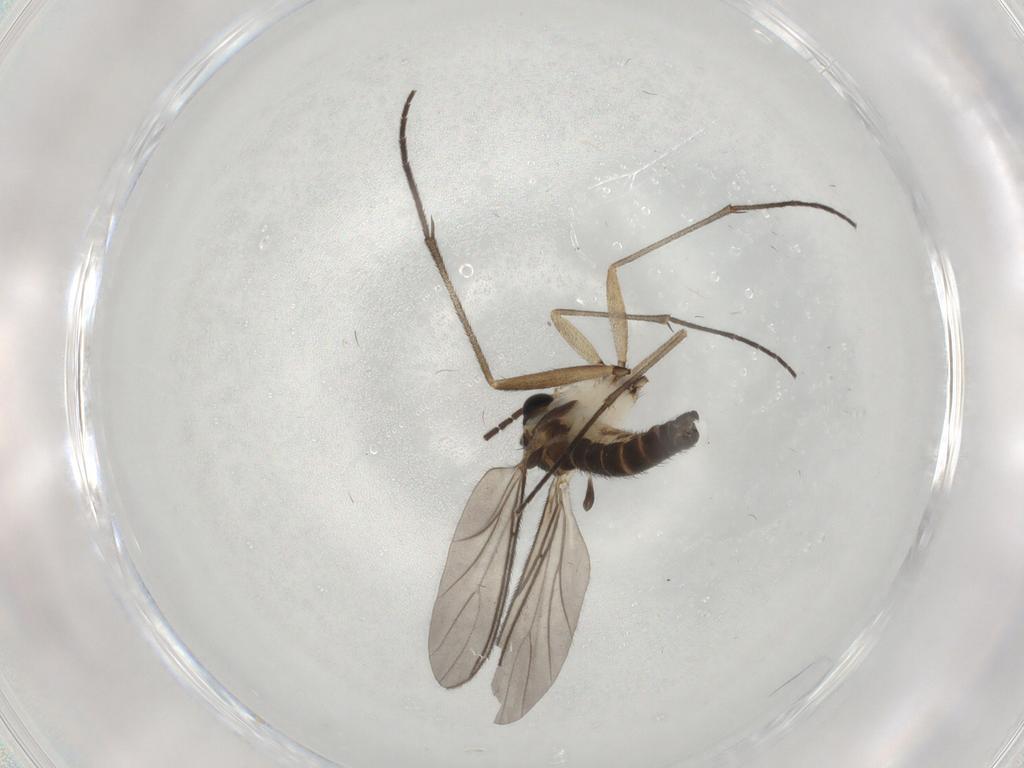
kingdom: Animalia
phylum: Arthropoda
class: Insecta
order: Diptera
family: Sciaridae
